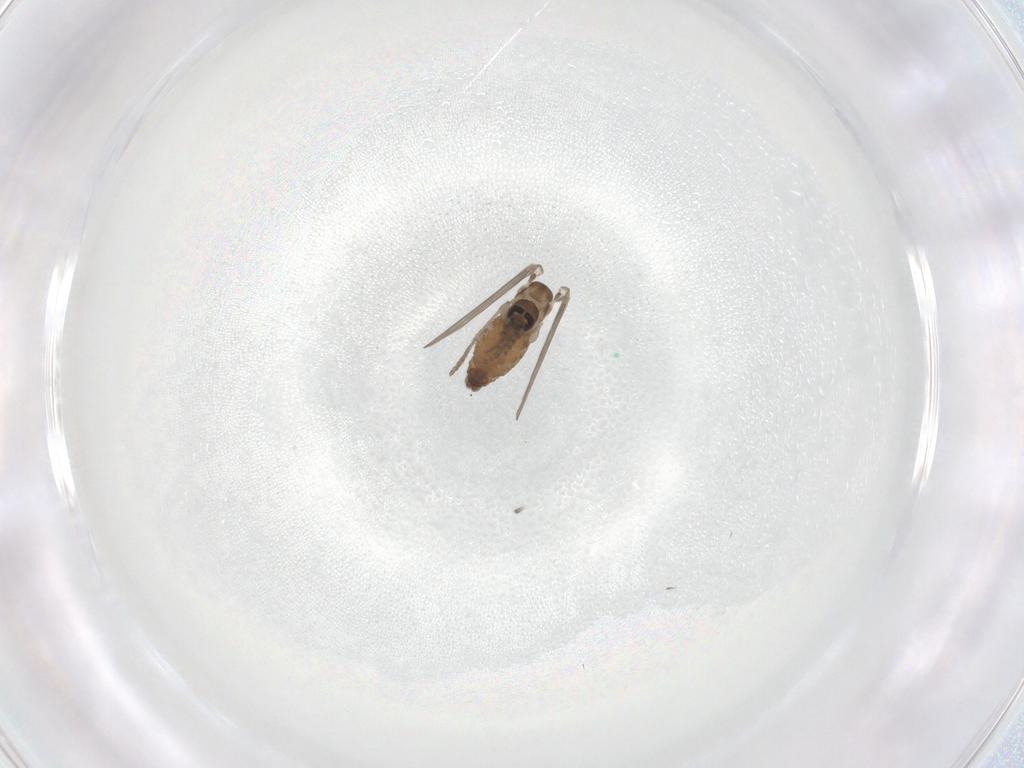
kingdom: Animalia
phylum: Arthropoda
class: Insecta
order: Diptera
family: Psychodidae
